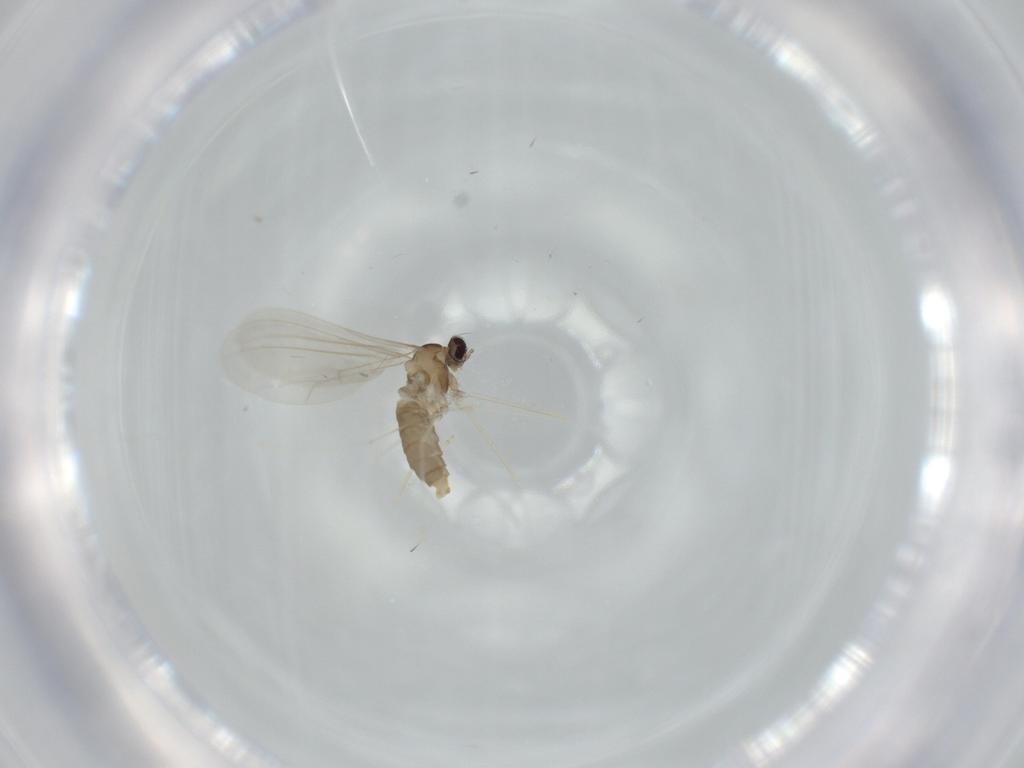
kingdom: Animalia
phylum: Arthropoda
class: Insecta
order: Diptera
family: Cecidomyiidae
